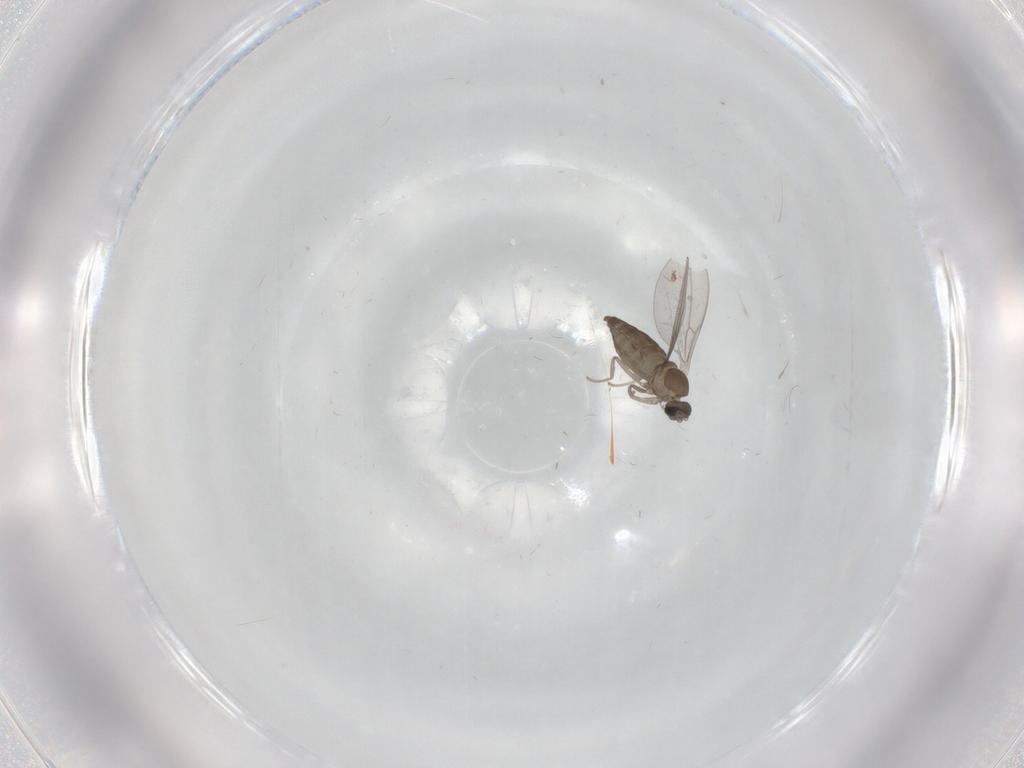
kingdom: Animalia
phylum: Arthropoda
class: Insecta
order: Diptera
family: Cecidomyiidae
